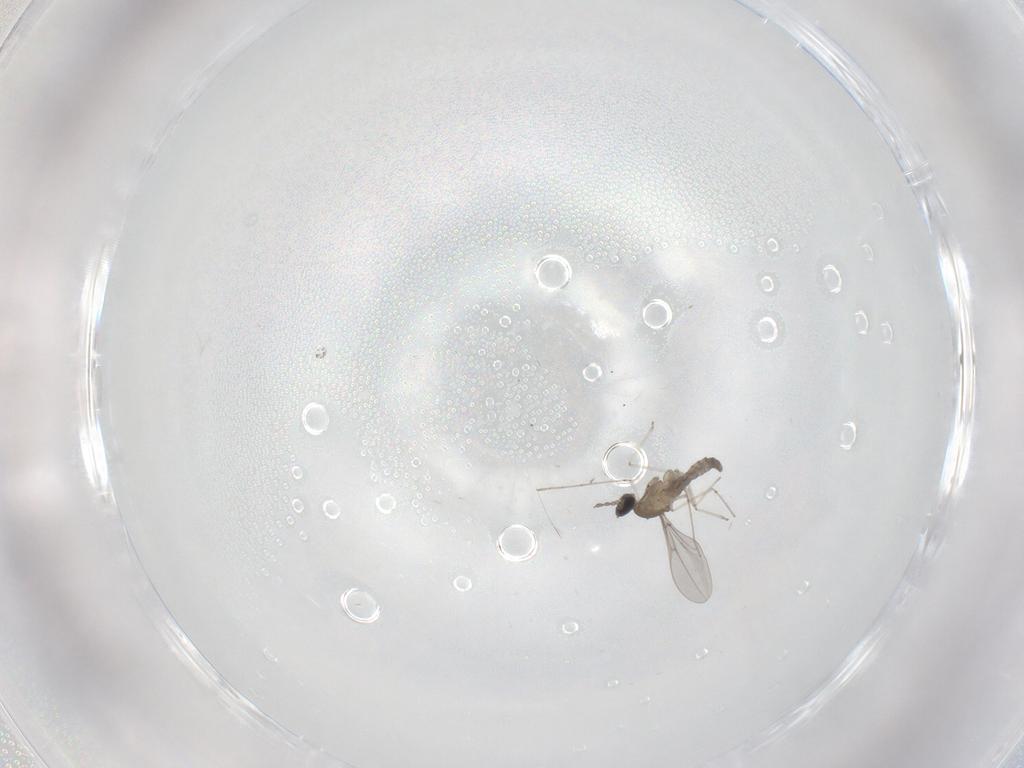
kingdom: Animalia
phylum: Arthropoda
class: Insecta
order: Diptera
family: Cecidomyiidae
